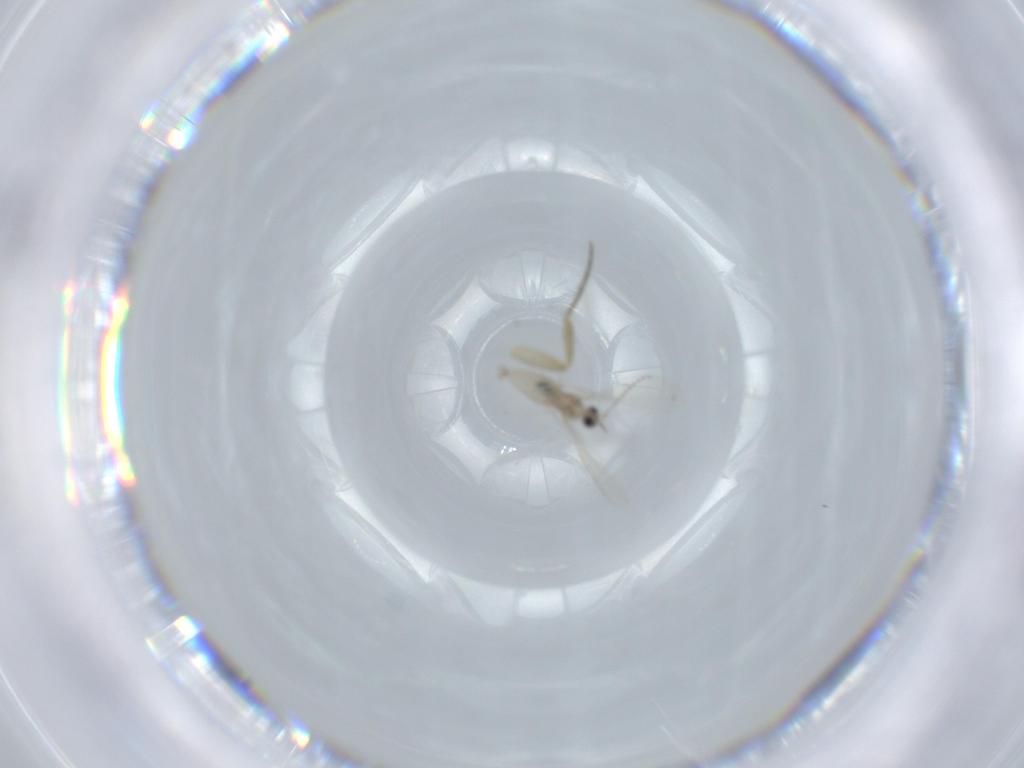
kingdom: Animalia
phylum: Arthropoda
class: Insecta
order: Diptera
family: Cecidomyiidae
